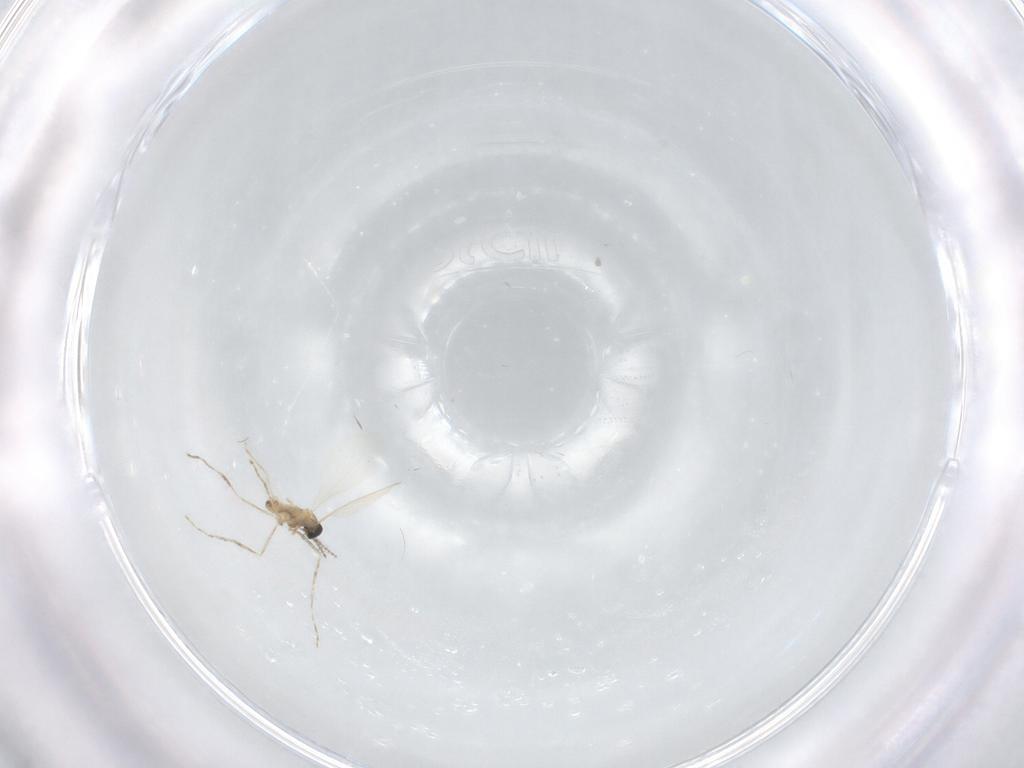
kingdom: Animalia
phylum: Arthropoda
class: Insecta
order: Diptera
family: Cecidomyiidae
